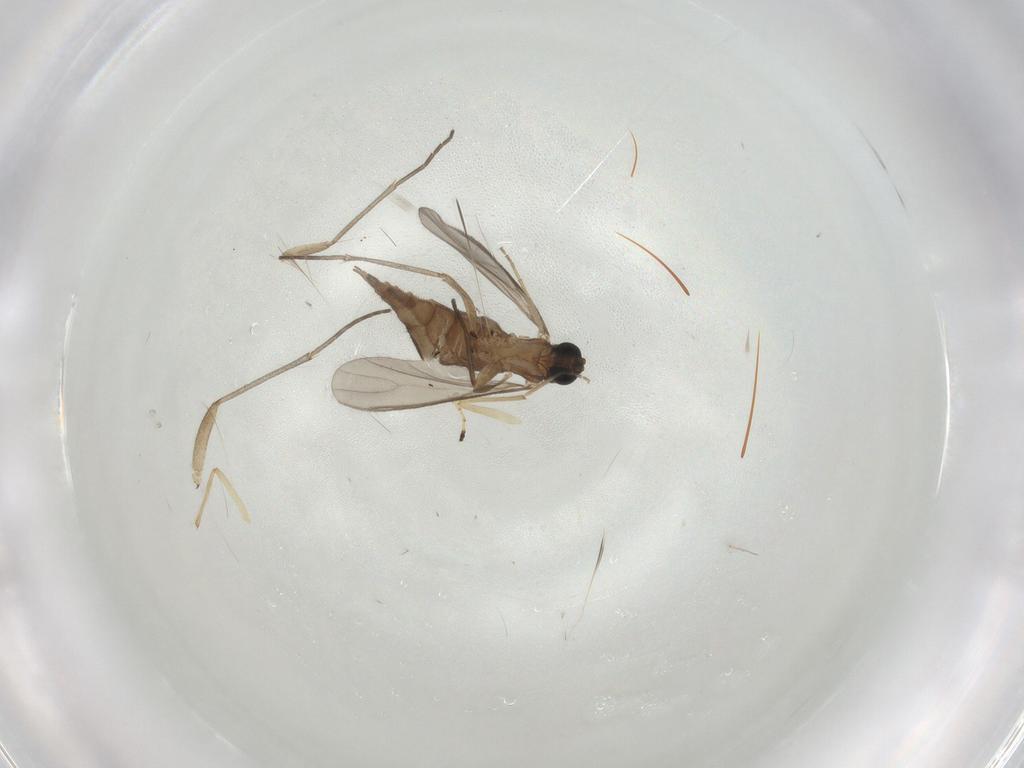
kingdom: Animalia
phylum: Arthropoda
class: Insecta
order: Diptera
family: Sciaridae
